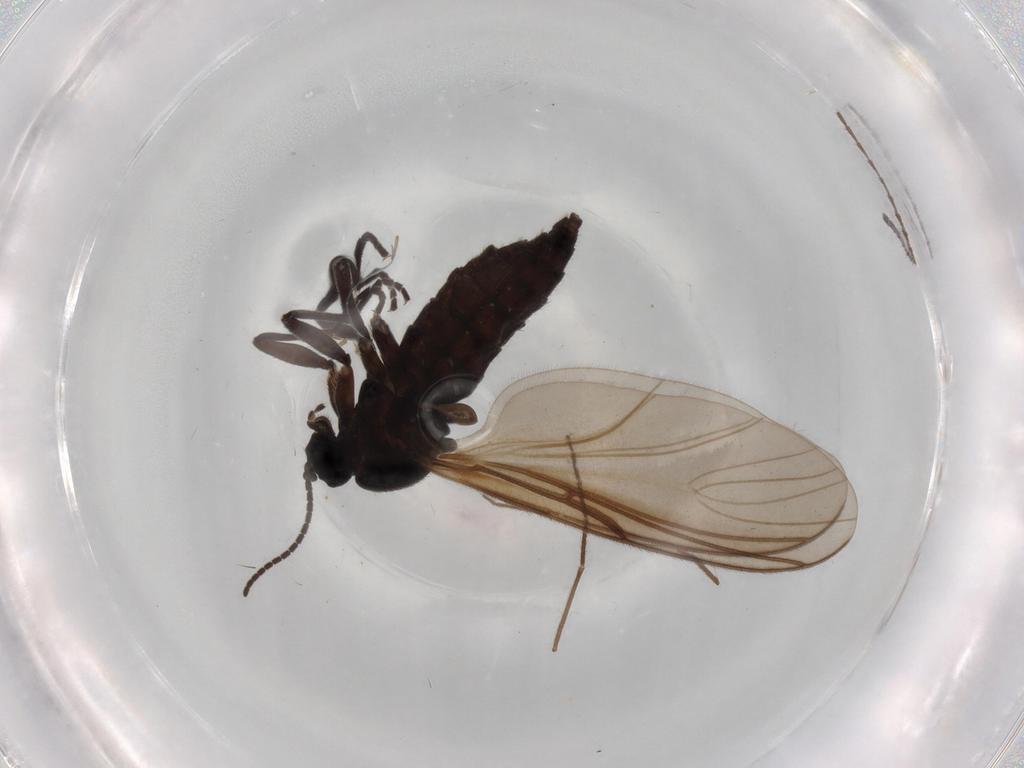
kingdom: Animalia
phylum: Arthropoda
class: Insecta
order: Diptera
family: Sciaridae
